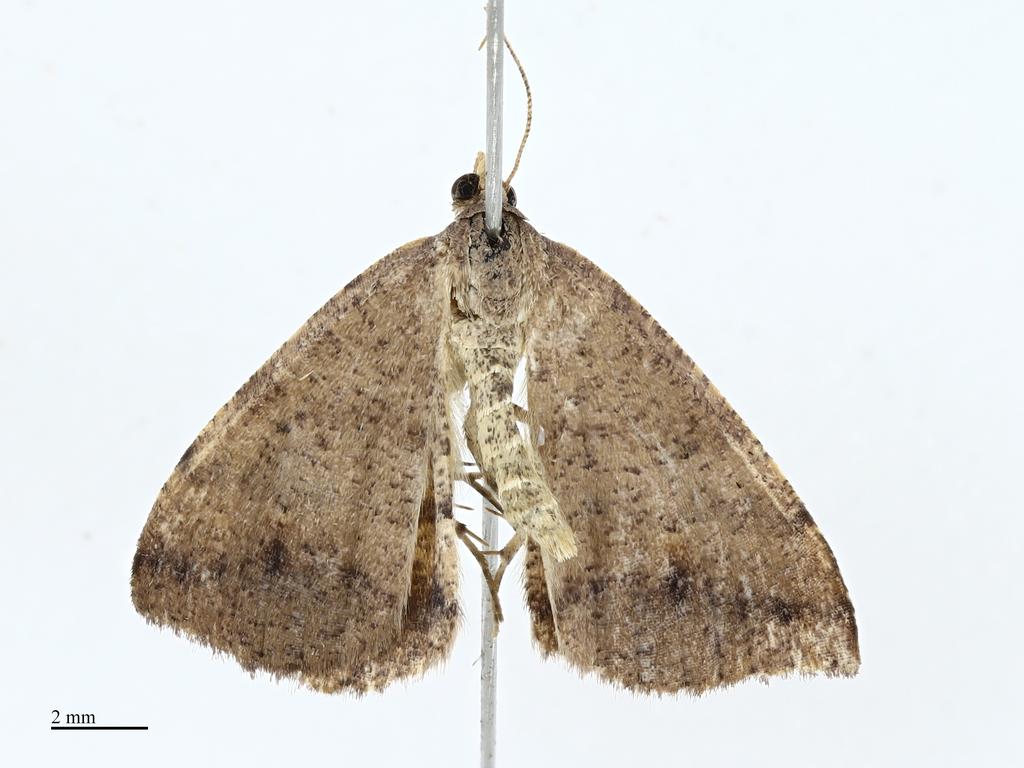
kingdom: Animalia
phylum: Arthropoda
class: Insecta
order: Lepidoptera
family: Geometridae
